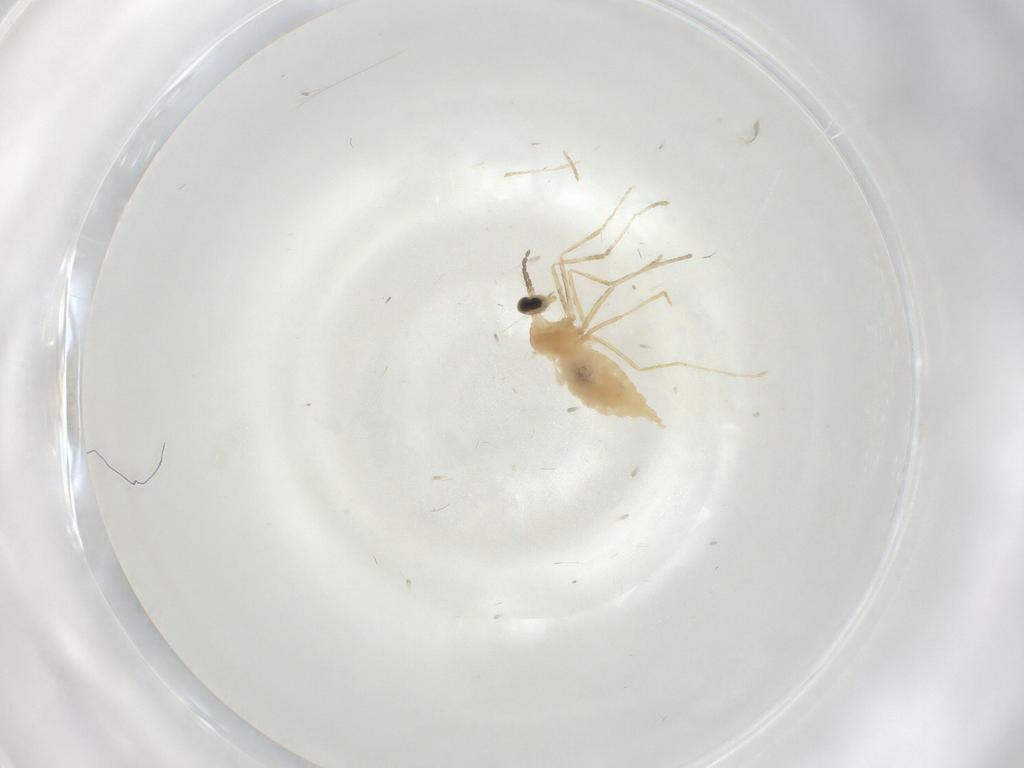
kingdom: Animalia
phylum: Arthropoda
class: Insecta
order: Diptera
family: Cecidomyiidae
